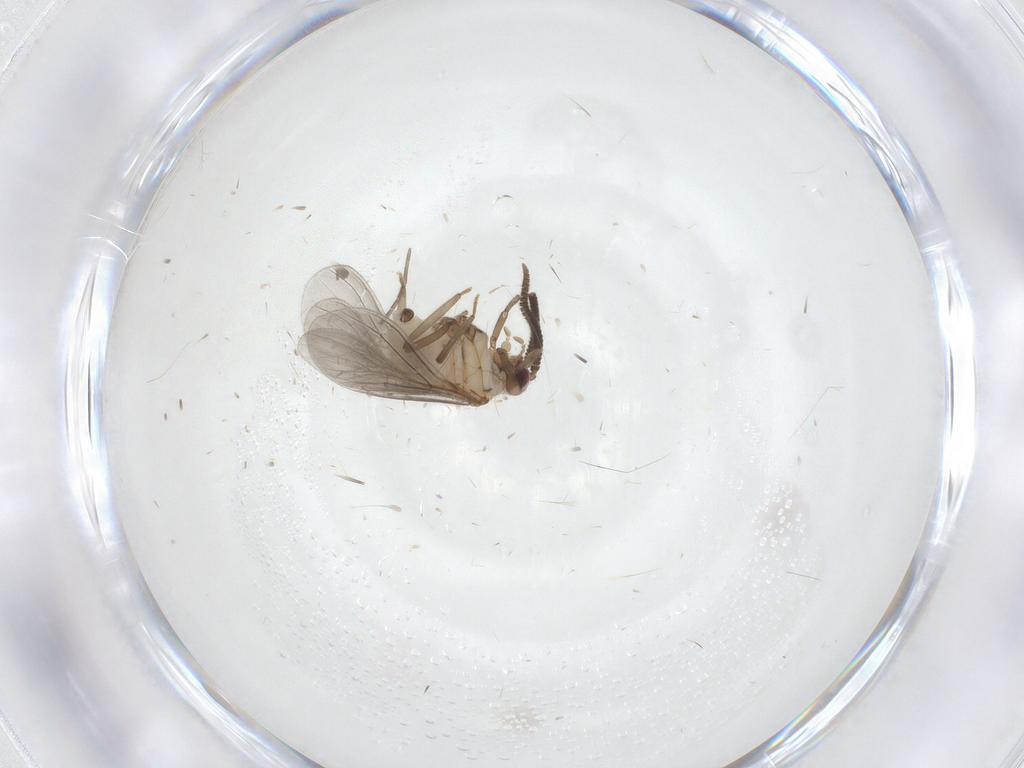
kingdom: Animalia
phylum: Arthropoda
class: Insecta
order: Neuroptera
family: Coniopterygidae
